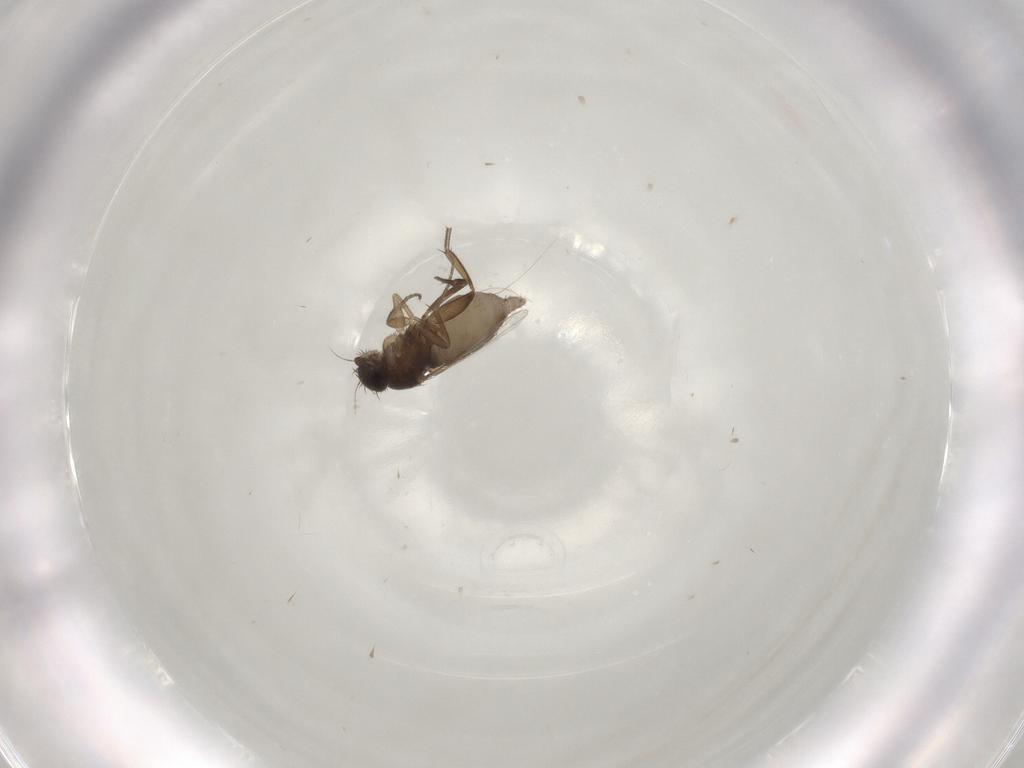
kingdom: Animalia
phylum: Arthropoda
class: Insecta
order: Diptera
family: Phoridae
